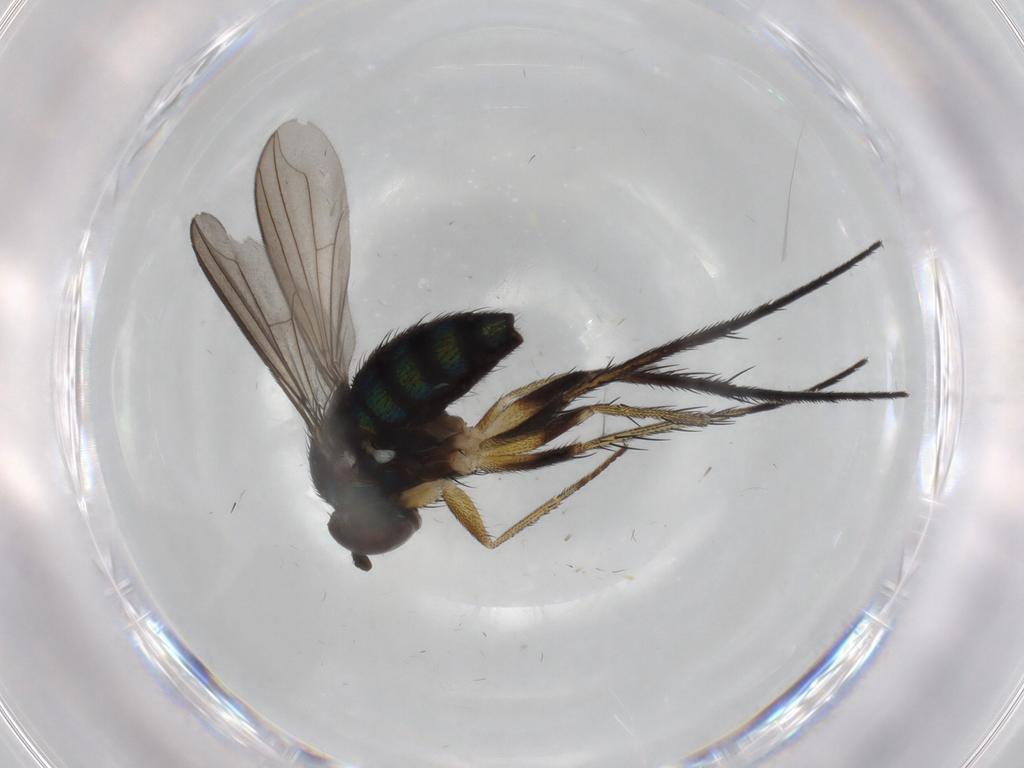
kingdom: Animalia
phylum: Arthropoda
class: Insecta
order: Diptera
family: Dolichopodidae
